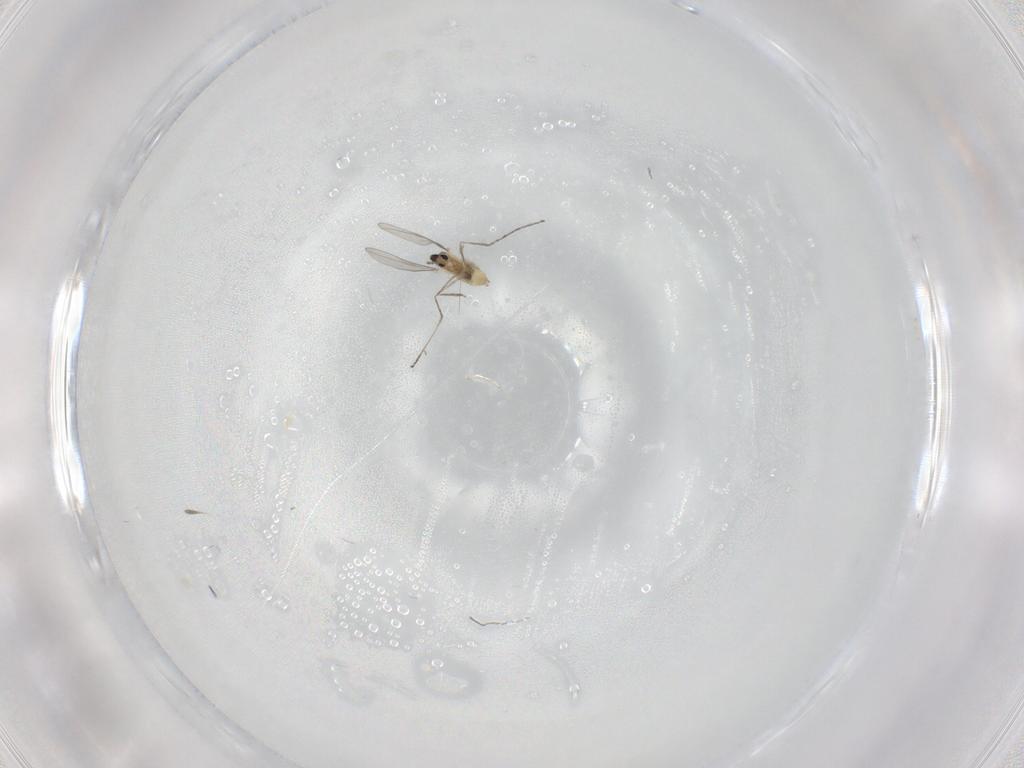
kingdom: Animalia
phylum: Arthropoda
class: Insecta
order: Diptera
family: Cecidomyiidae
